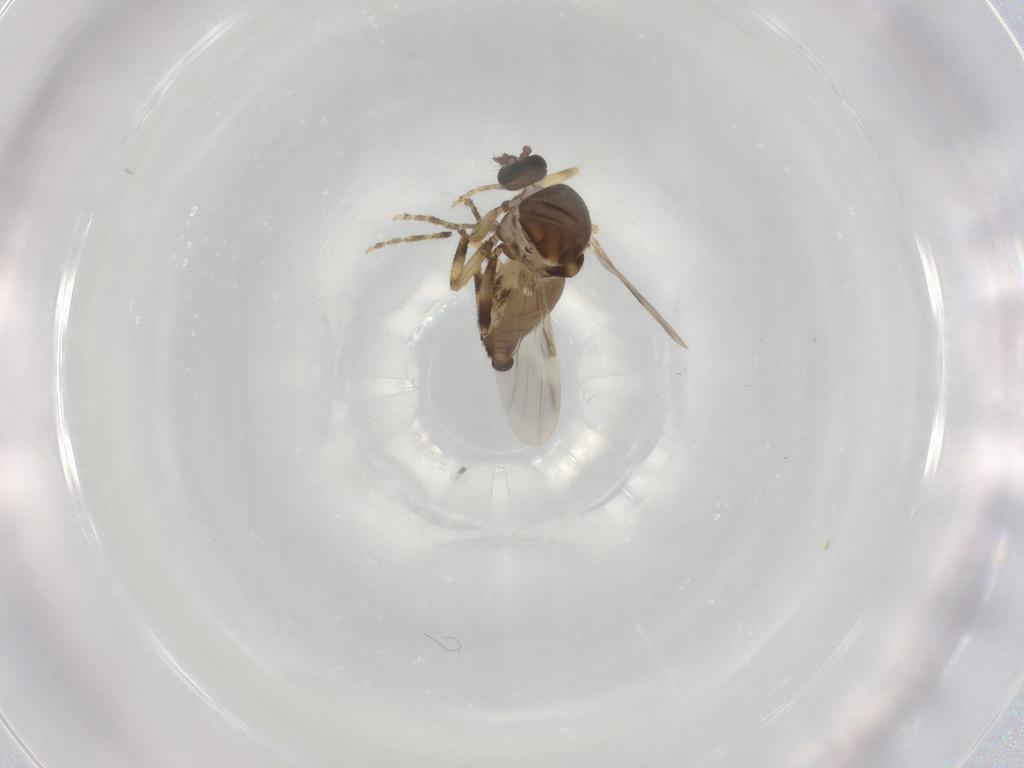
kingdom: Animalia
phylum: Arthropoda
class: Insecta
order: Diptera
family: Ceratopogonidae
